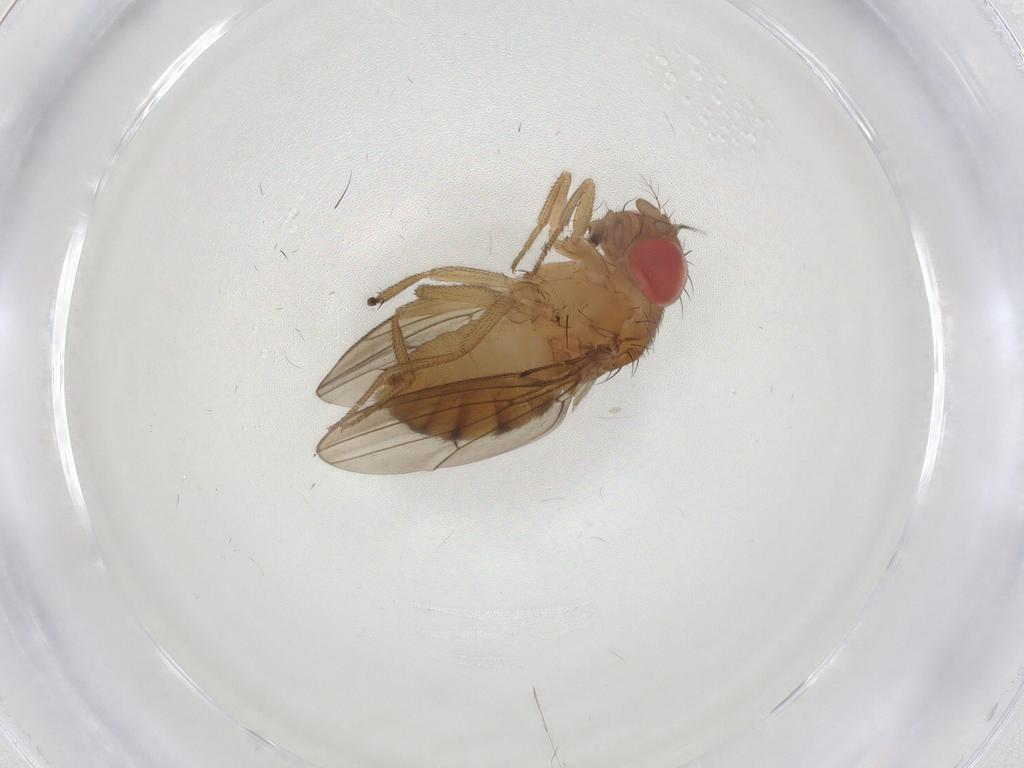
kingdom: Animalia
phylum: Arthropoda
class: Insecta
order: Diptera
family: Drosophilidae
